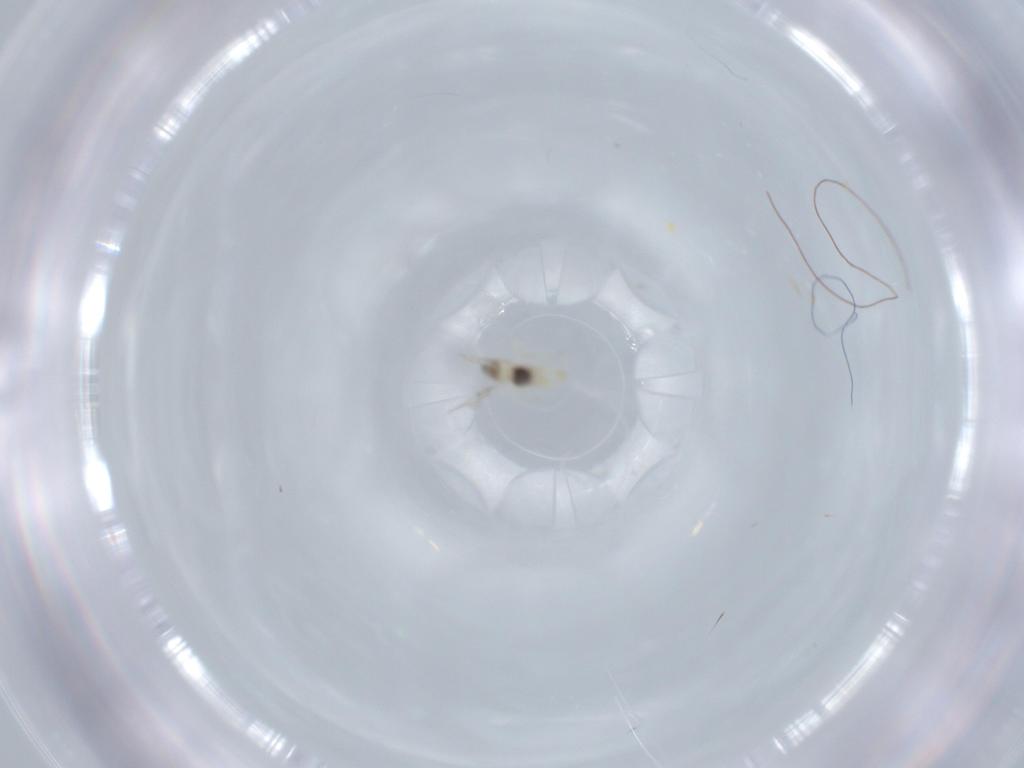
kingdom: Animalia
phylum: Arthropoda
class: Insecta
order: Diptera
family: Cecidomyiidae
